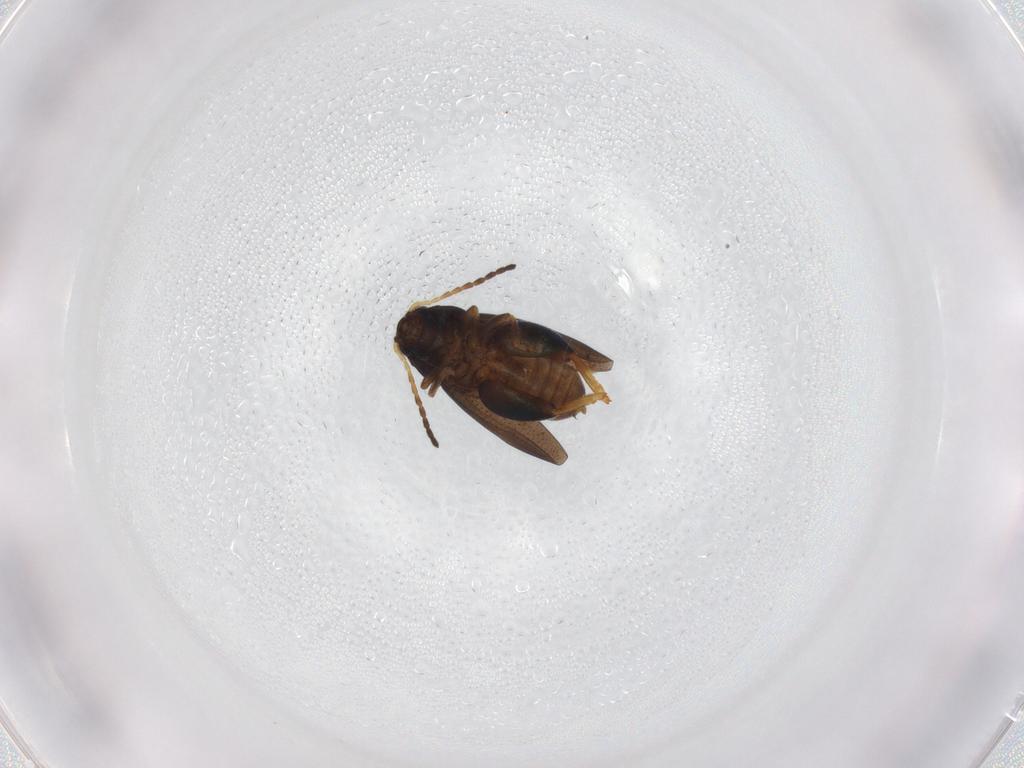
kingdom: Animalia
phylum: Arthropoda
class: Insecta
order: Coleoptera
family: Chrysomelidae
